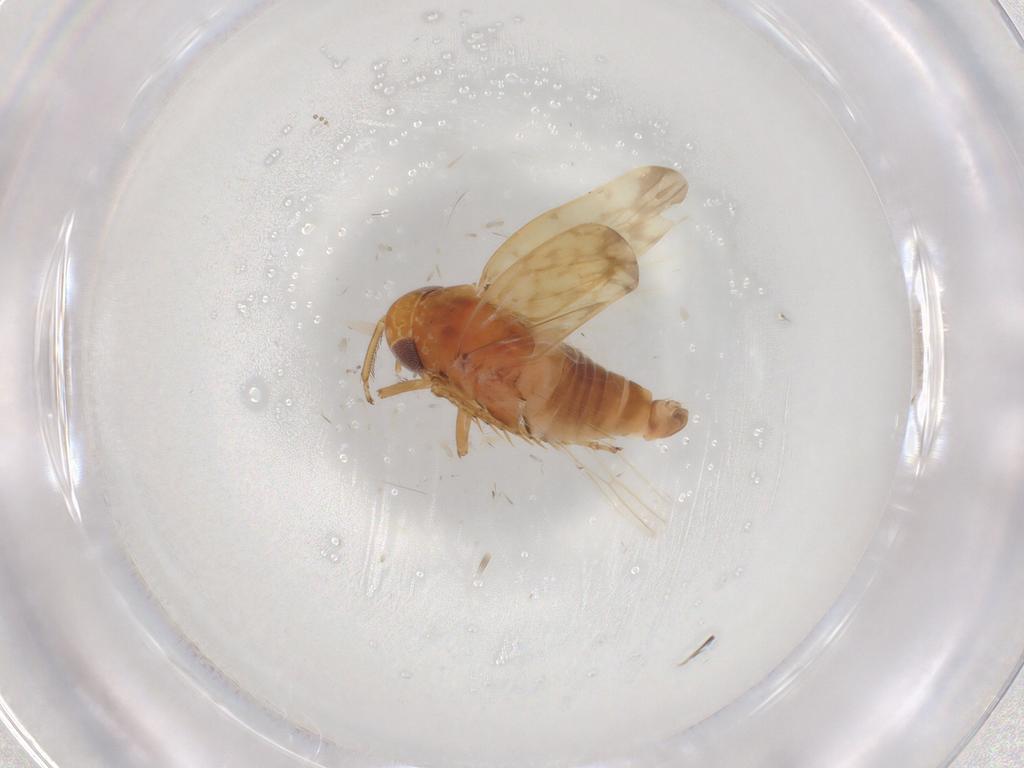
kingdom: Animalia
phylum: Arthropoda
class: Insecta
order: Hemiptera
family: Cicadellidae
